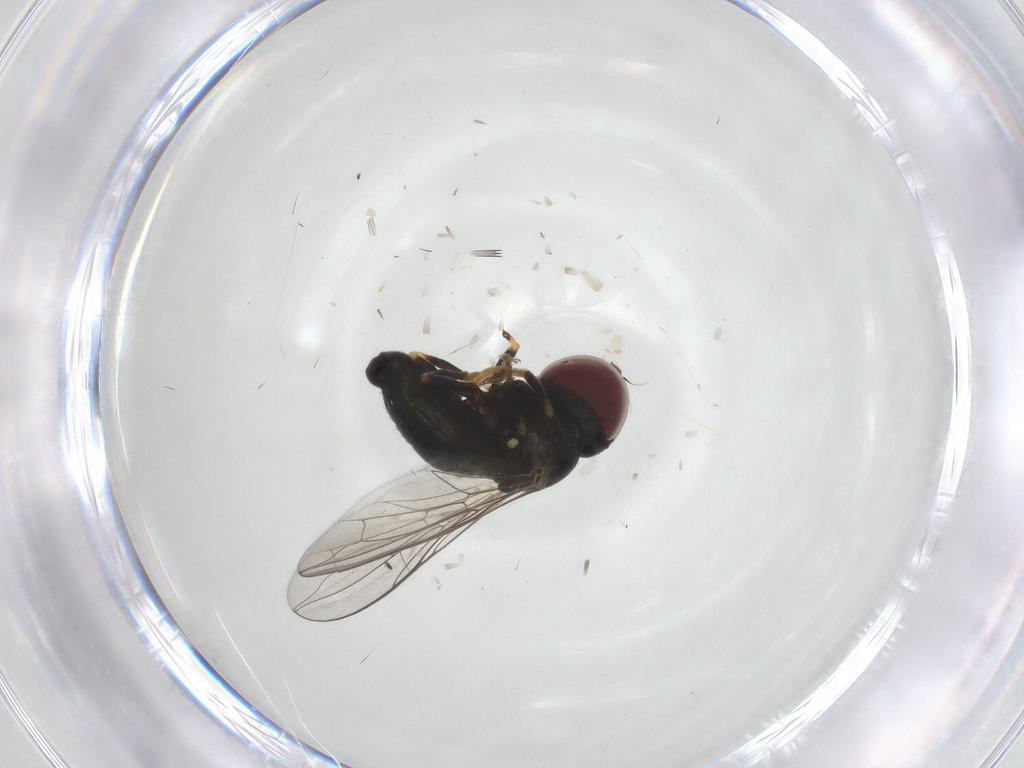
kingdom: Animalia
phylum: Arthropoda
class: Insecta
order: Diptera
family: Pipunculidae
